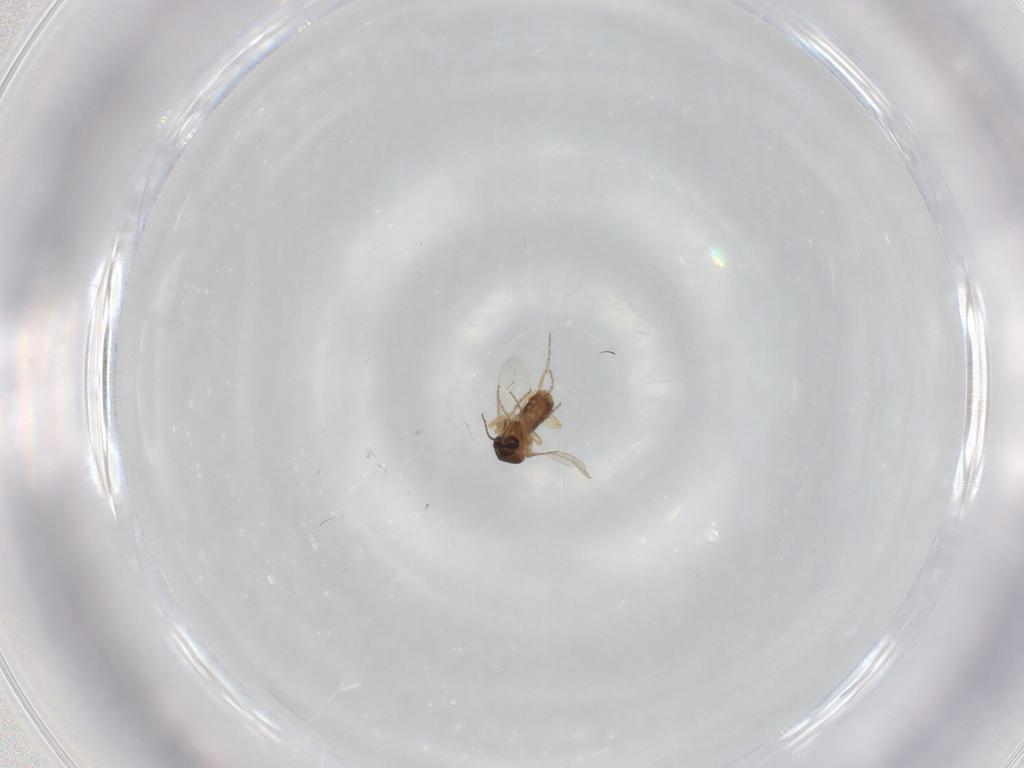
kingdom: Animalia
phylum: Arthropoda
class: Insecta
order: Diptera
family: Ceratopogonidae
